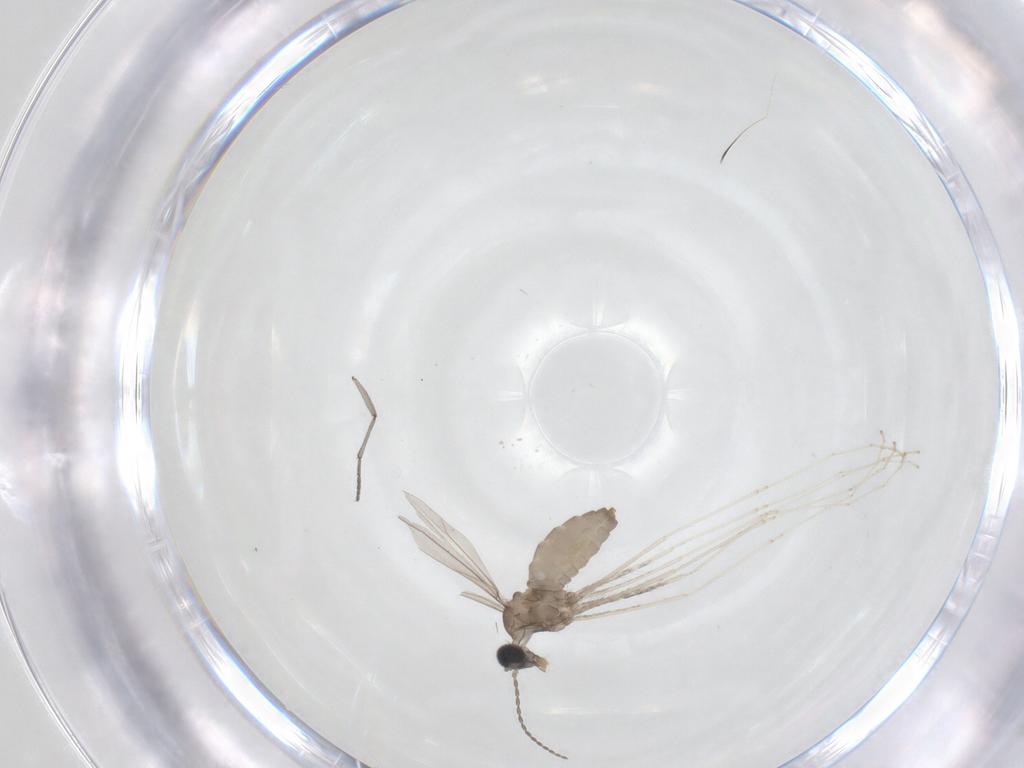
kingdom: Animalia
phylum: Arthropoda
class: Insecta
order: Diptera
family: Cecidomyiidae
